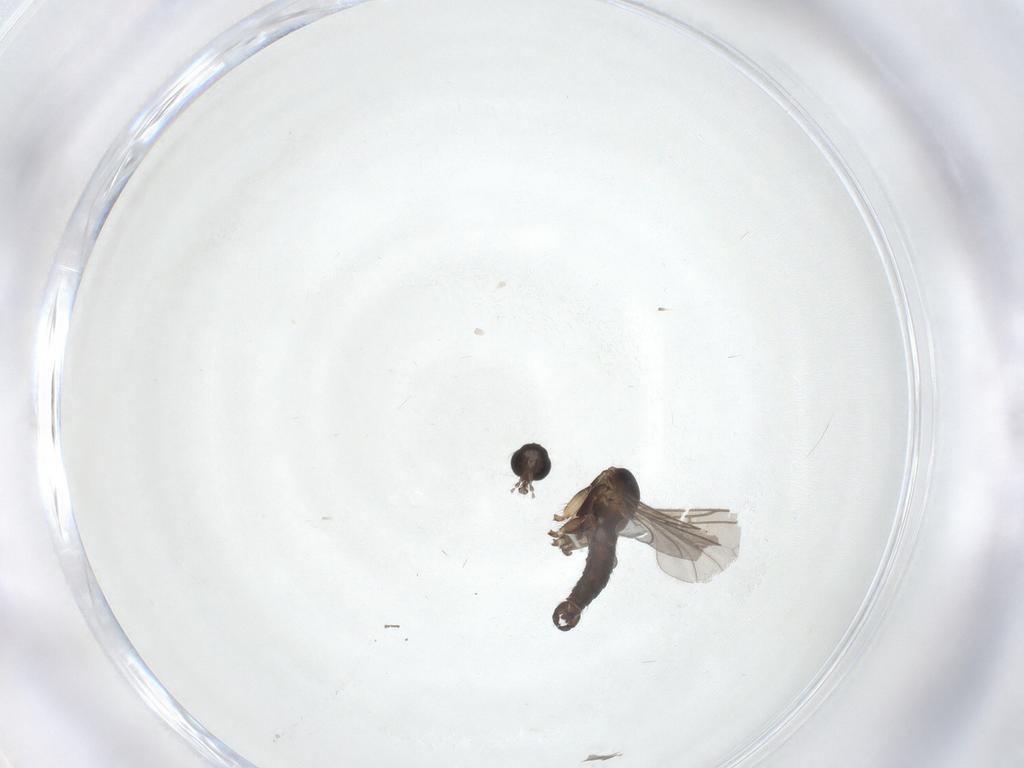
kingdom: Animalia
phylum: Arthropoda
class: Insecta
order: Diptera
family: Sciaridae
